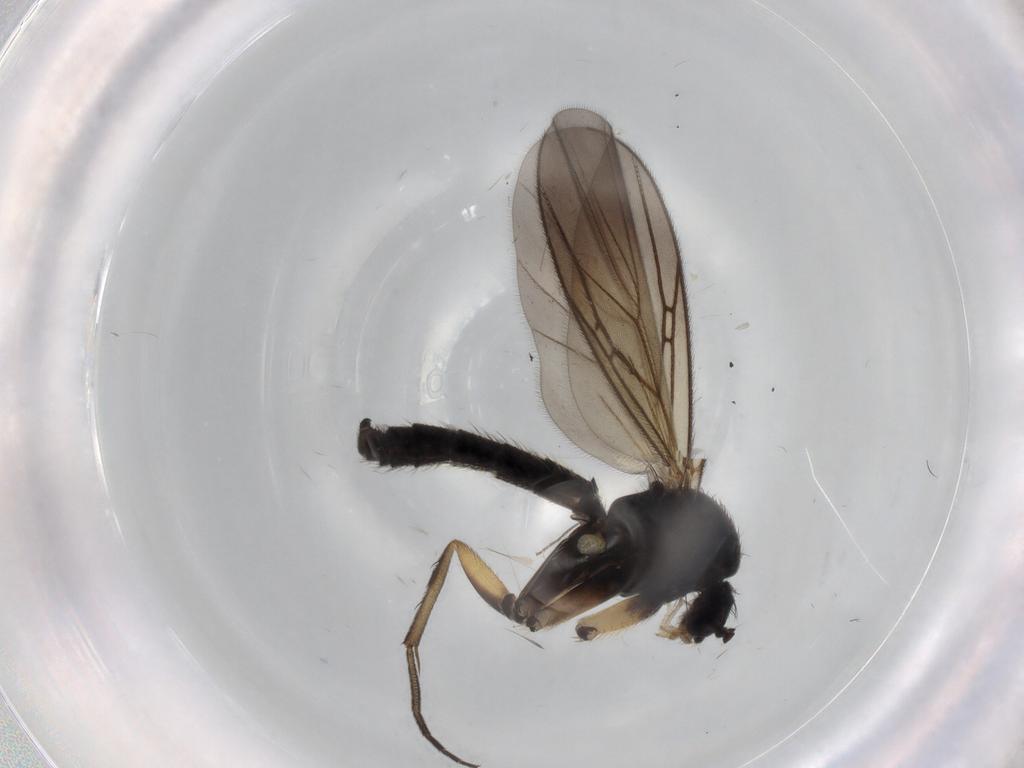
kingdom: Animalia
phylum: Arthropoda
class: Insecta
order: Diptera
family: Mycetophilidae
